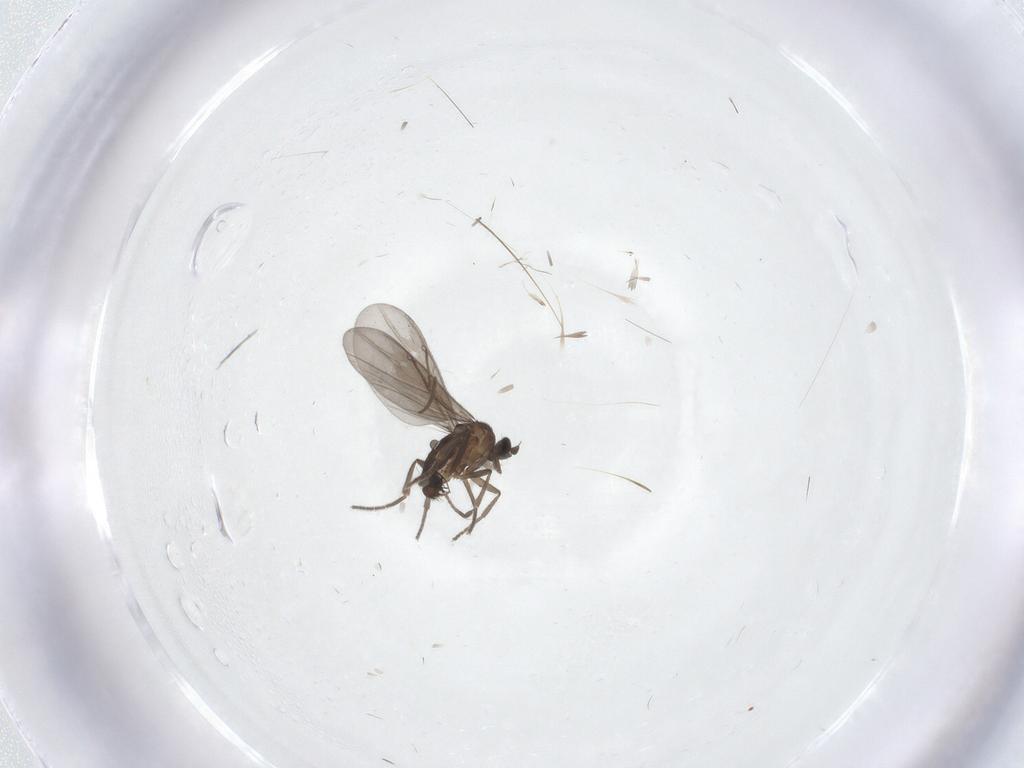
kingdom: Animalia
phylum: Arthropoda
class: Insecta
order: Diptera
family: Phoridae
